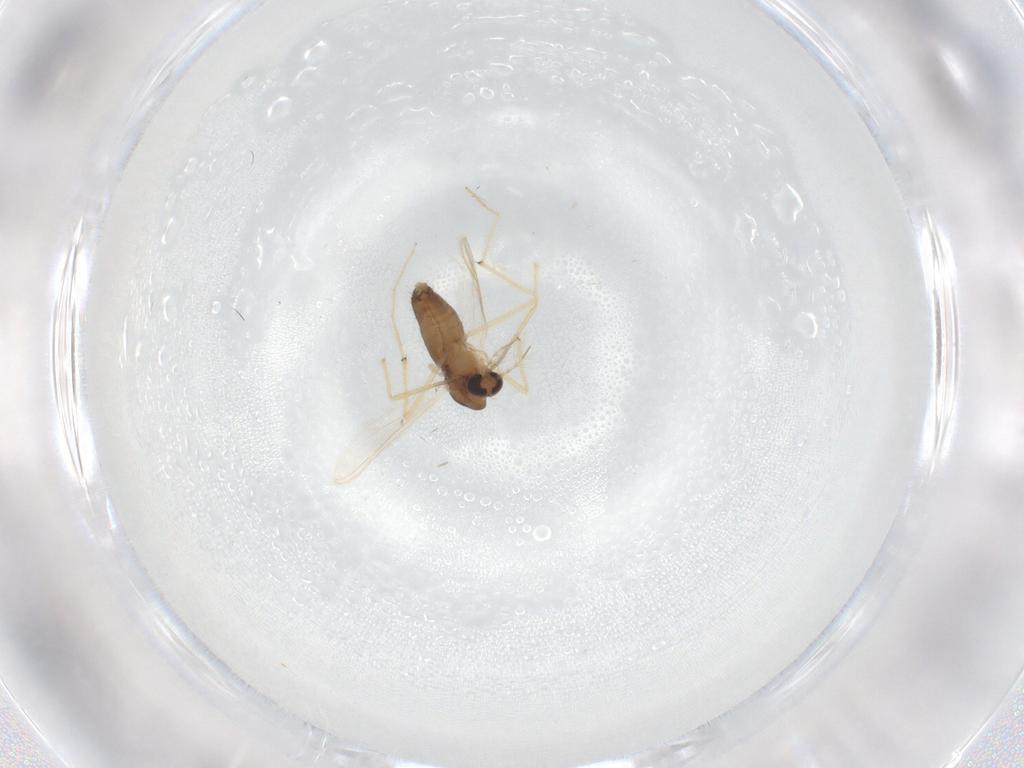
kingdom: Animalia
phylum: Arthropoda
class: Insecta
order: Diptera
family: Chironomidae
